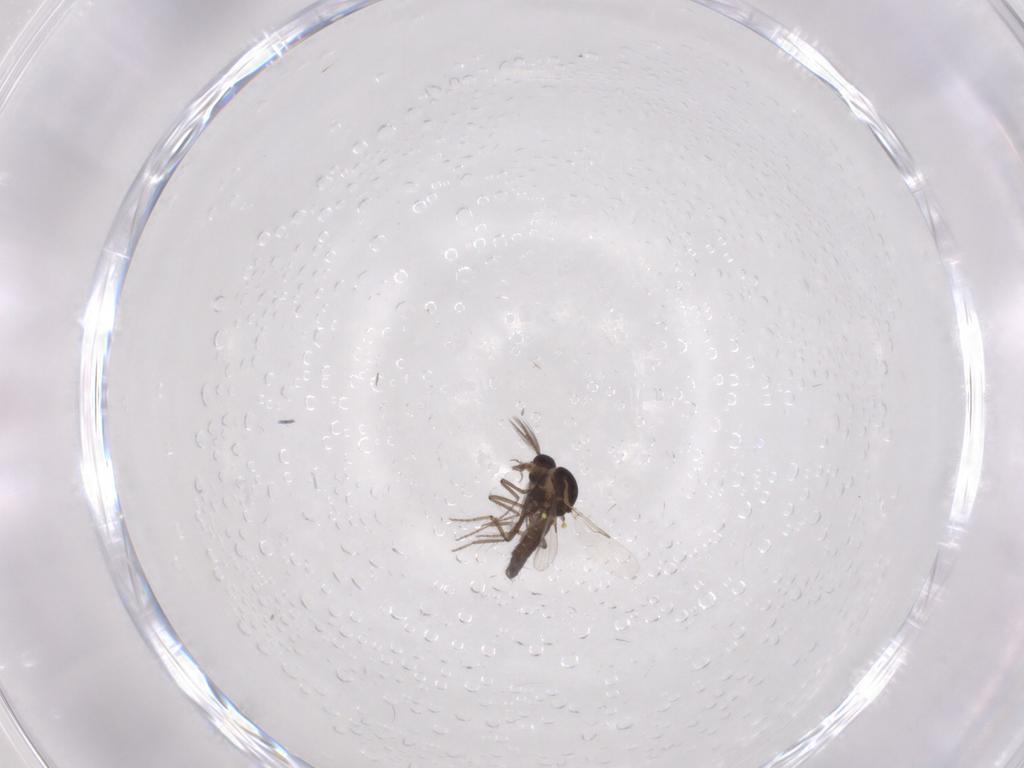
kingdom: Animalia
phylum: Arthropoda
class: Insecta
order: Diptera
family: Ceratopogonidae
